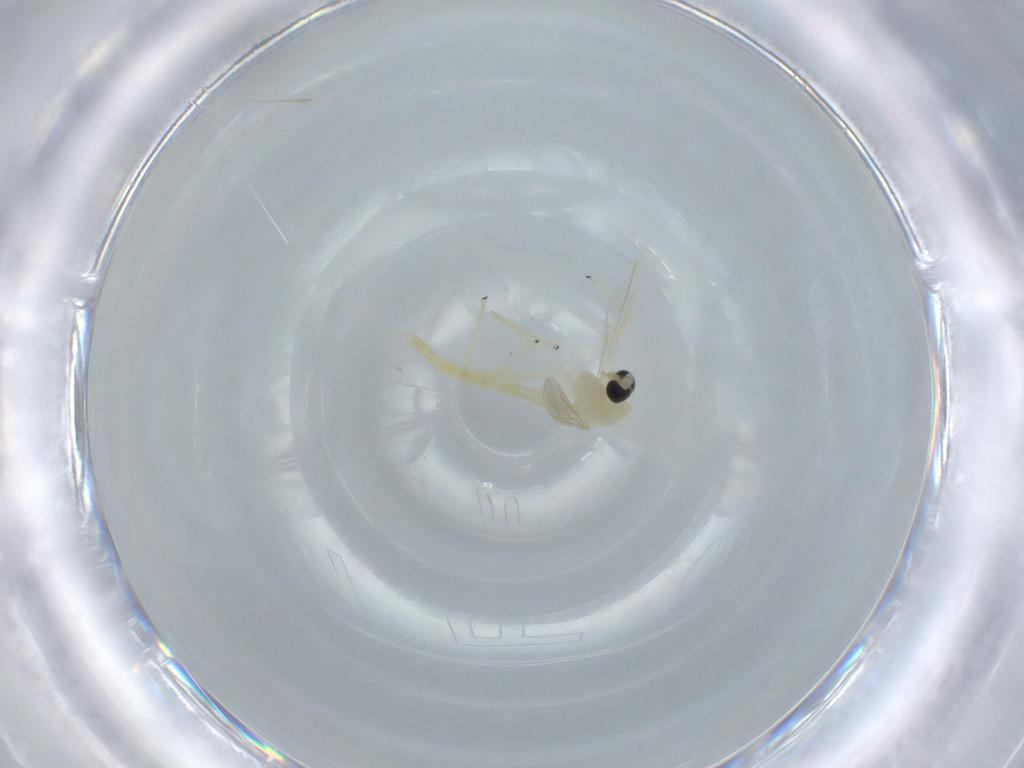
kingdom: Animalia
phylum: Arthropoda
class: Insecta
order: Diptera
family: Chironomidae
